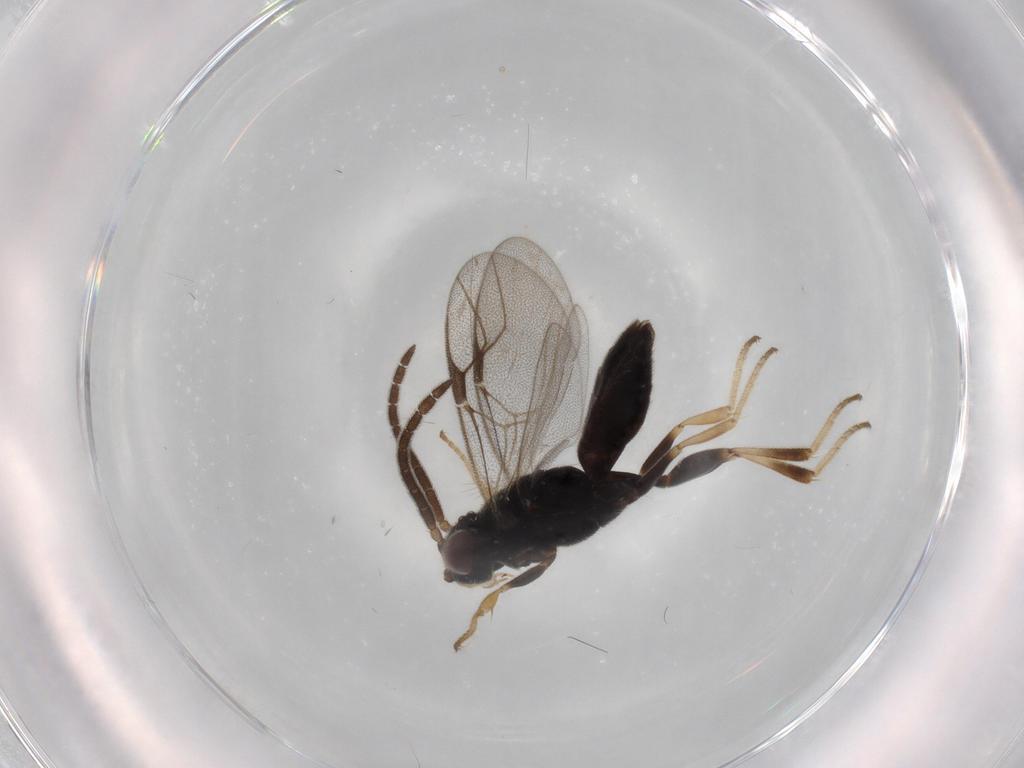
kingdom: Animalia
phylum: Arthropoda
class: Insecta
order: Hymenoptera
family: Dryinidae
